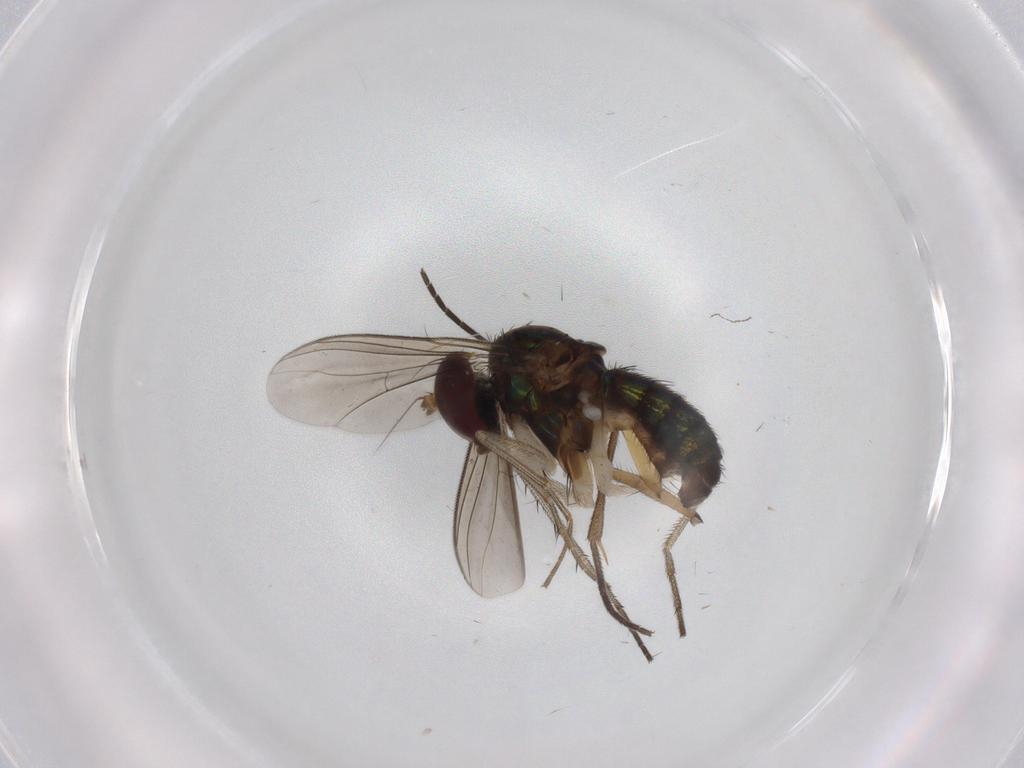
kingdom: Animalia
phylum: Arthropoda
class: Insecta
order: Diptera
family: Dolichopodidae
